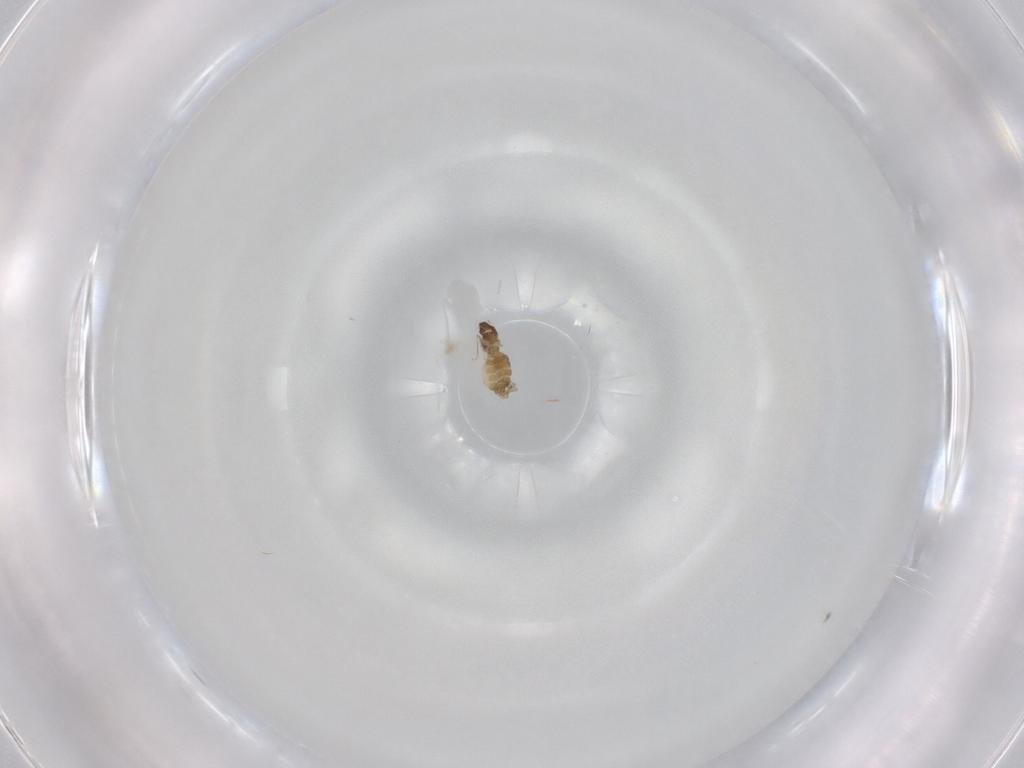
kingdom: Animalia
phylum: Arthropoda
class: Insecta
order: Diptera
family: Cecidomyiidae
